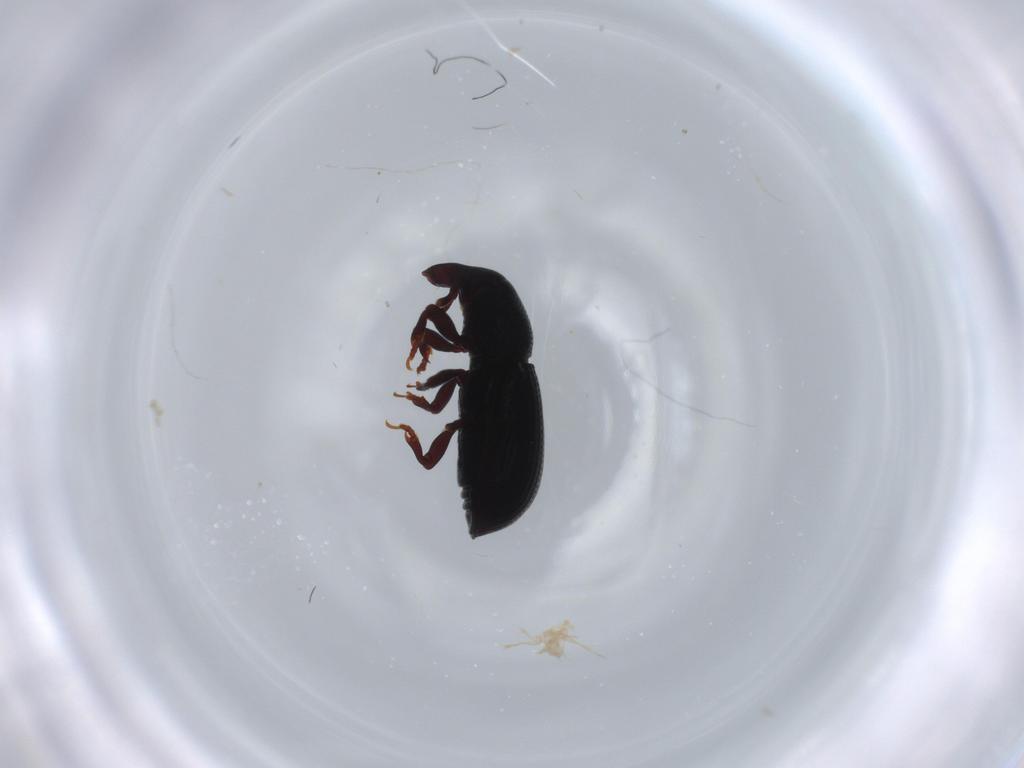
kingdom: Animalia
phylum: Arthropoda
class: Insecta
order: Coleoptera
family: Curculionidae
